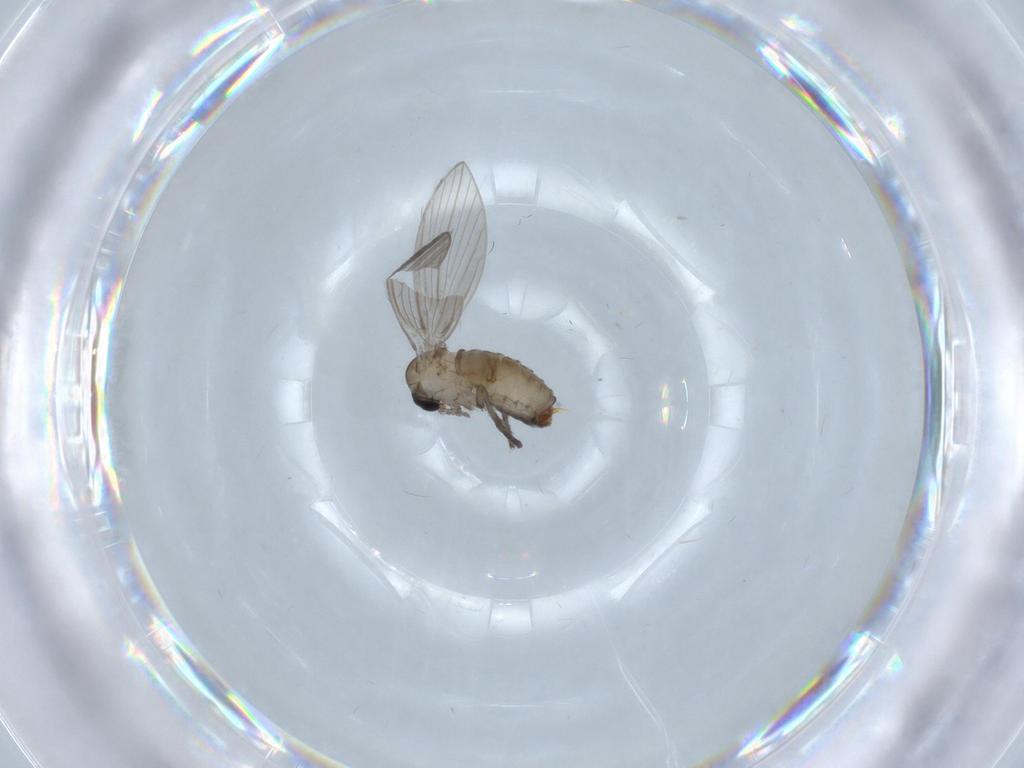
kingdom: Animalia
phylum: Arthropoda
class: Insecta
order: Diptera
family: Psychodidae
